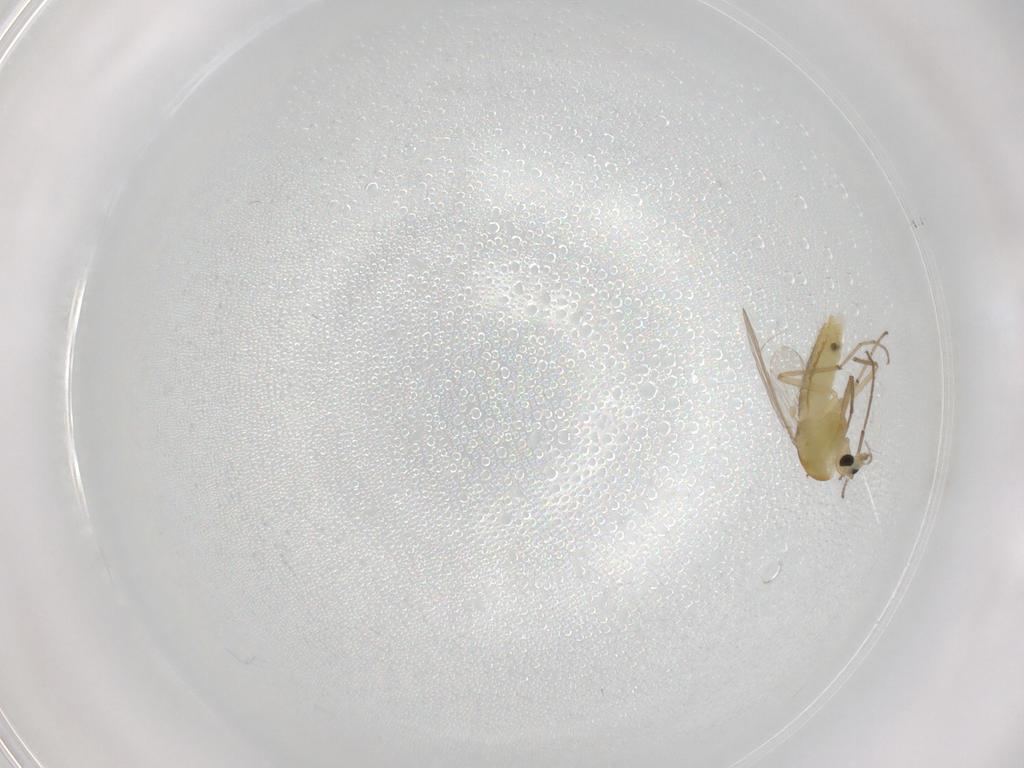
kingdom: Animalia
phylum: Arthropoda
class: Insecta
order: Diptera
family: Chironomidae
